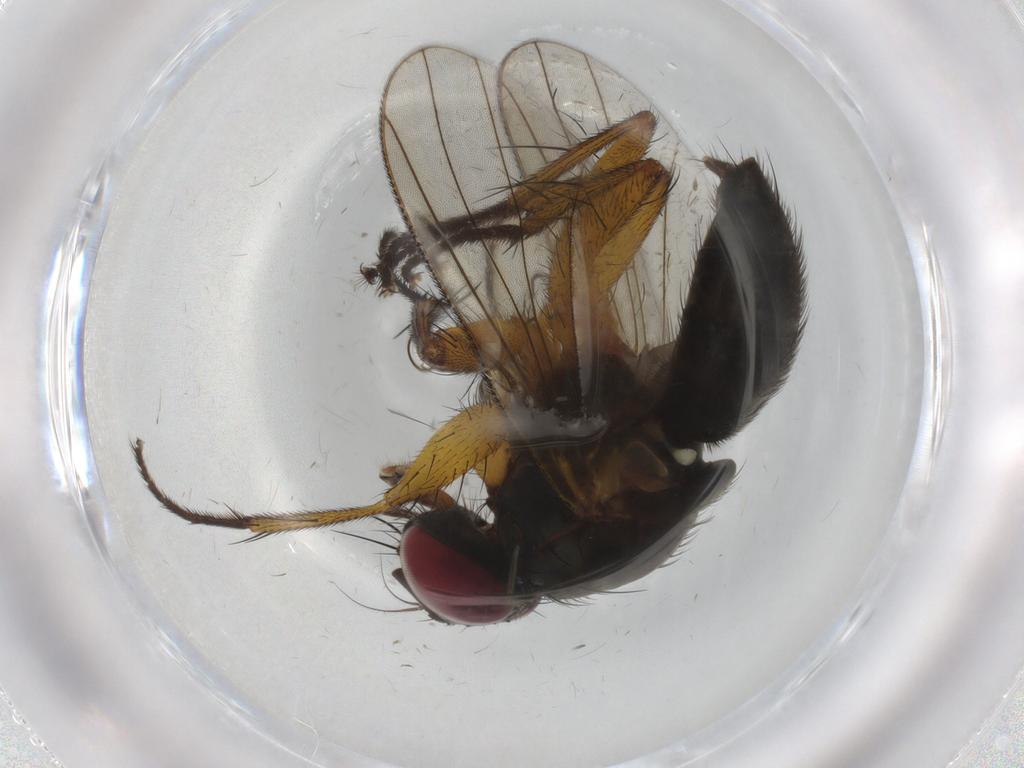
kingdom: Animalia
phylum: Arthropoda
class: Insecta
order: Diptera
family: Muscidae
